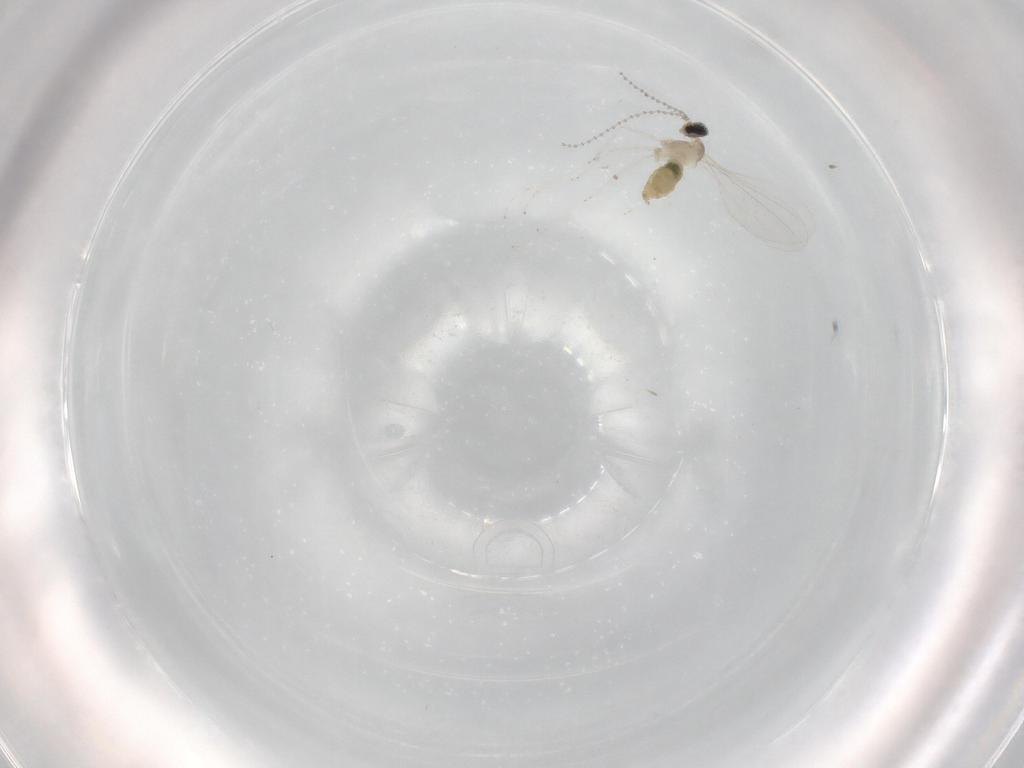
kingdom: Animalia
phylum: Arthropoda
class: Insecta
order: Diptera
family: Cecidomyiidae
